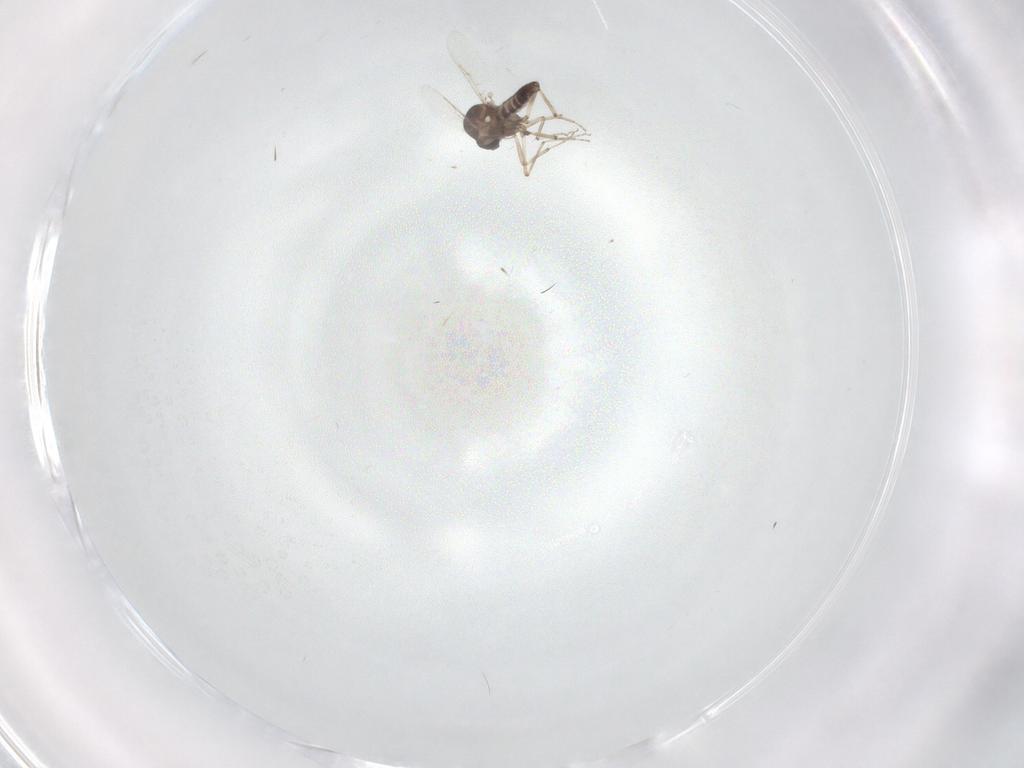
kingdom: Animalia
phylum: Arthropoda
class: Insecta
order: Diptera
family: Ceratopogonidae
